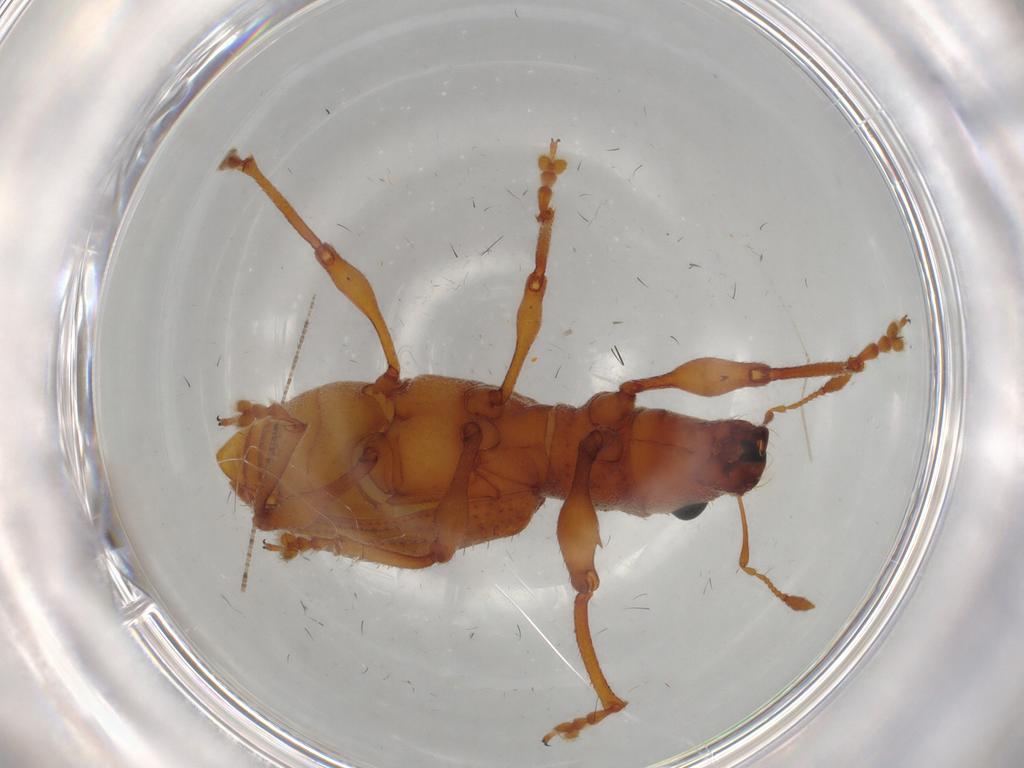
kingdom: Animalia
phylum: Arthropoda
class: Insecta
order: Coleoptera
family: Curculionidae
